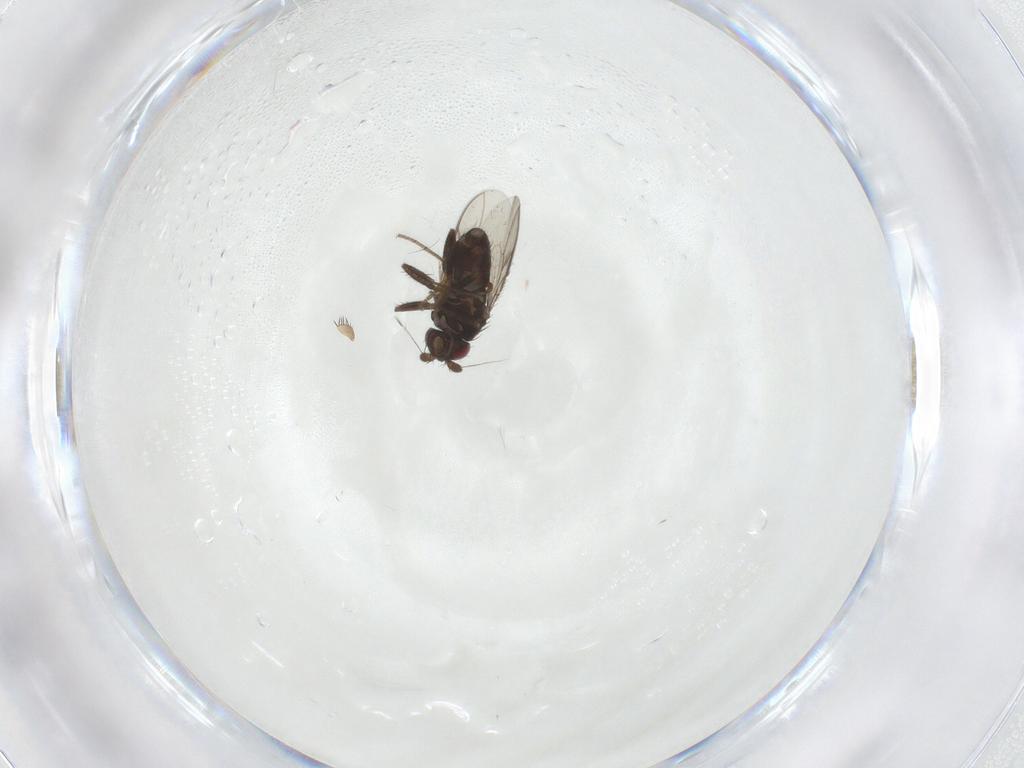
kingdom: Animalia
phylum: Arthropoda
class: Insecta
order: Diptera
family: Sphaeroceridae
